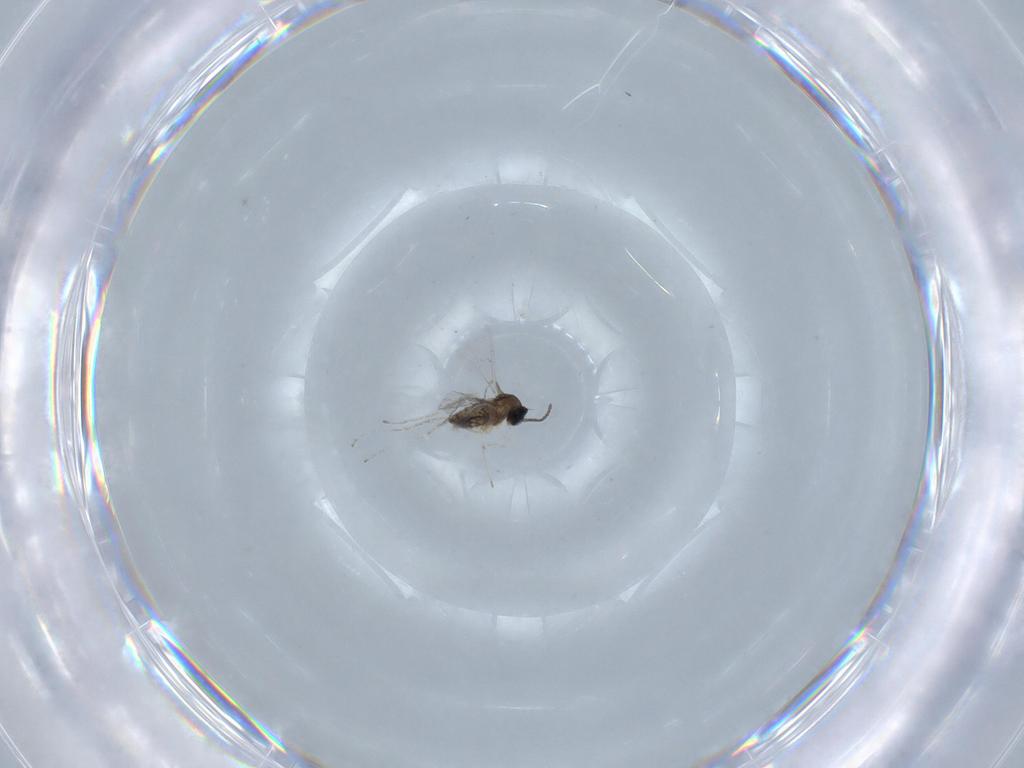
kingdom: Animalia
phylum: Arthropoda
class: Insecta
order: Diptera
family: Cecidomyiidae
